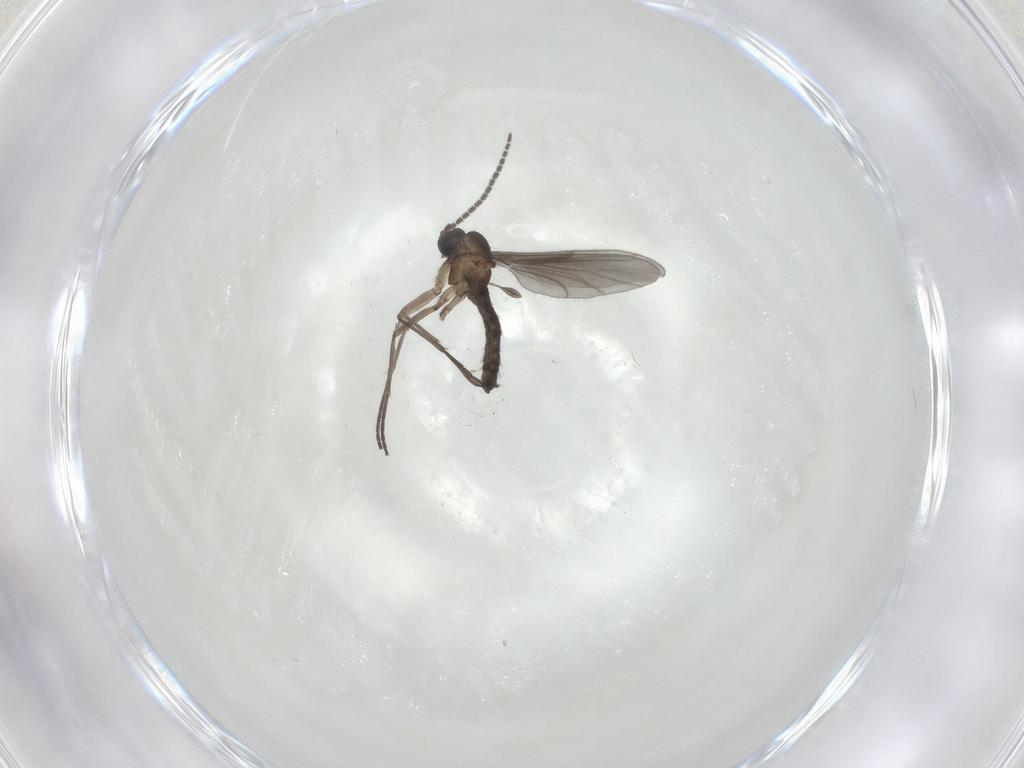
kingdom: Animalia
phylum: Arthropoda
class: Insecta
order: Diptera
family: Sciaridae
